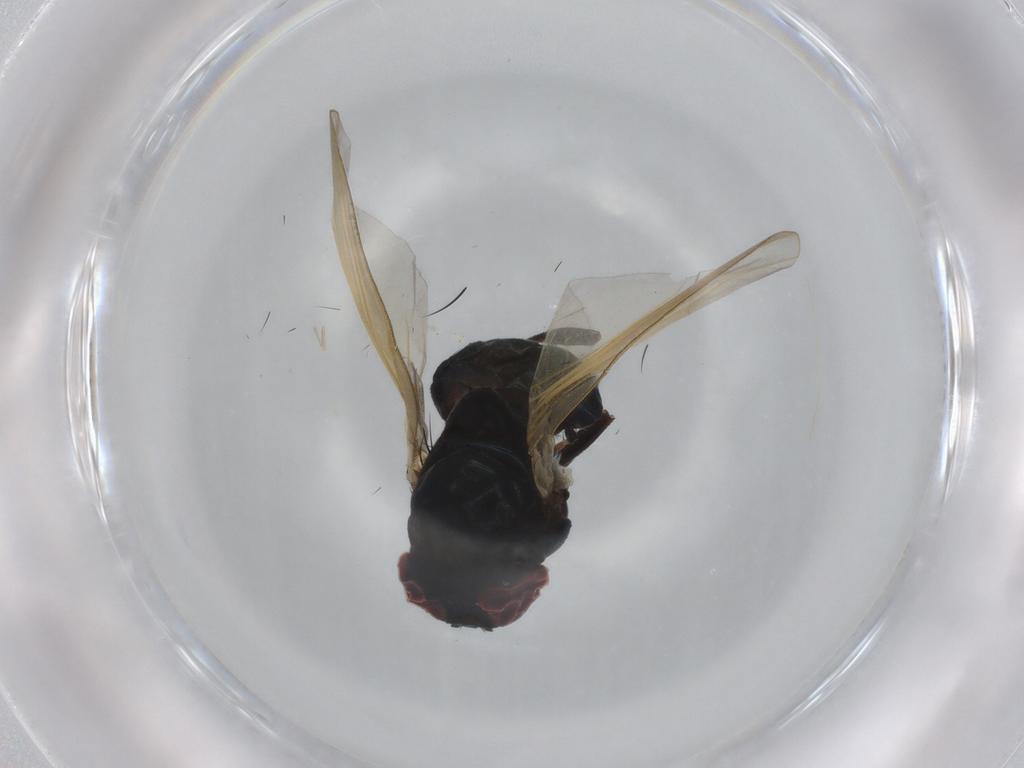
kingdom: Animalia
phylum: Arthropoda
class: Insecta
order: Diptera
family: Lonchaeidae
